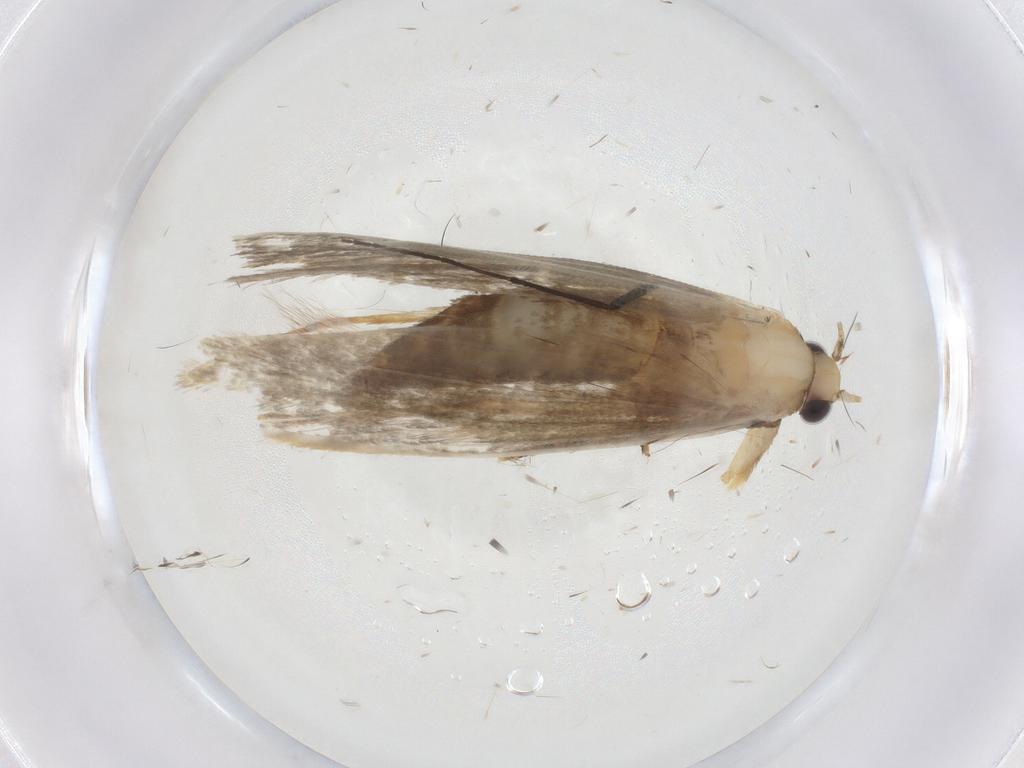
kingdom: Animalia
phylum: Arthropoda
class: Insecta
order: Lepidoptera
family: Tineidae
